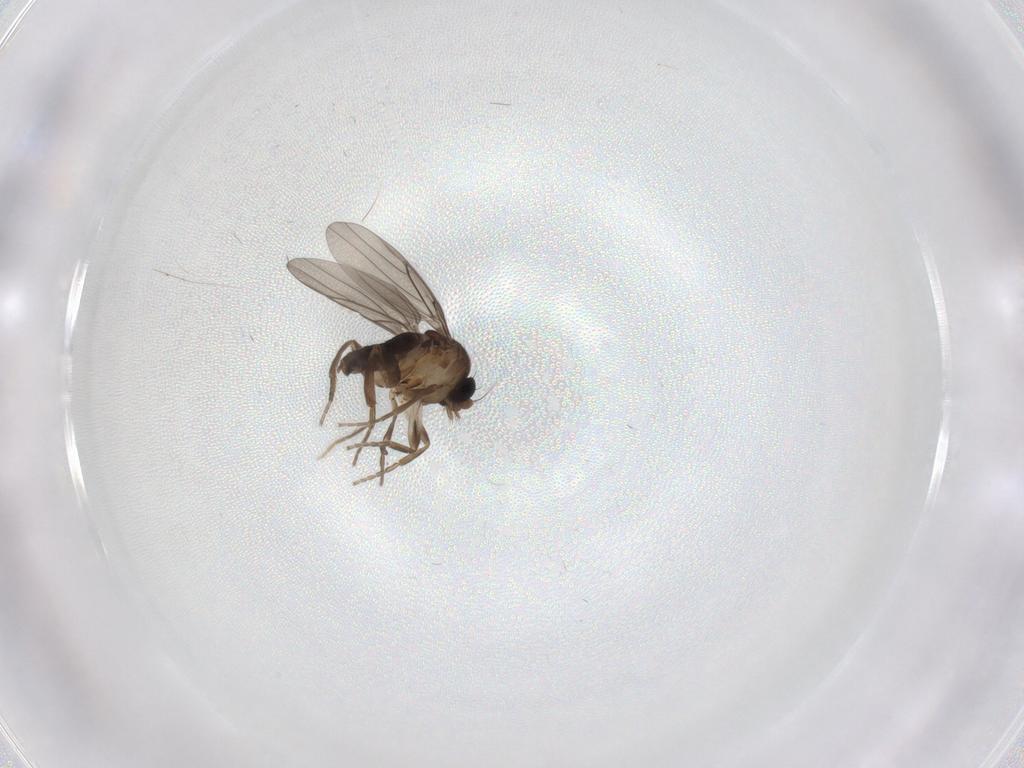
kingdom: Animalia
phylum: Arthropoda
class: Insecta
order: Diptera
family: Chironomidae
